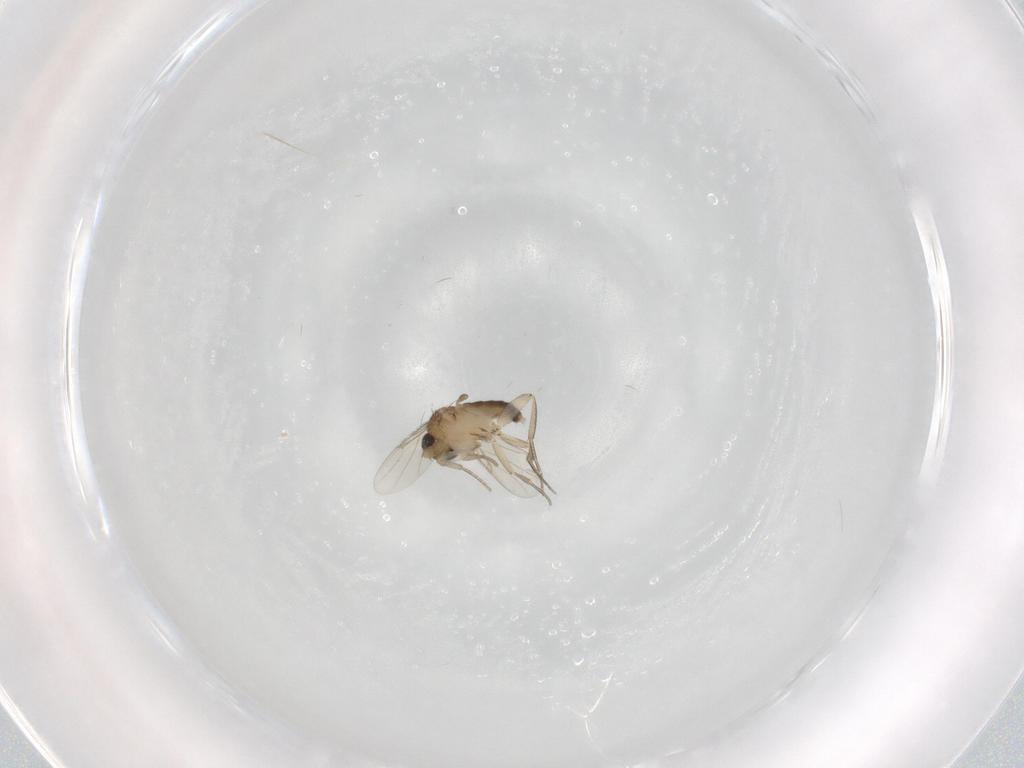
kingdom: Animalia
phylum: Arthropoda
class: Insecta
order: Diptera
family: Phoridae
